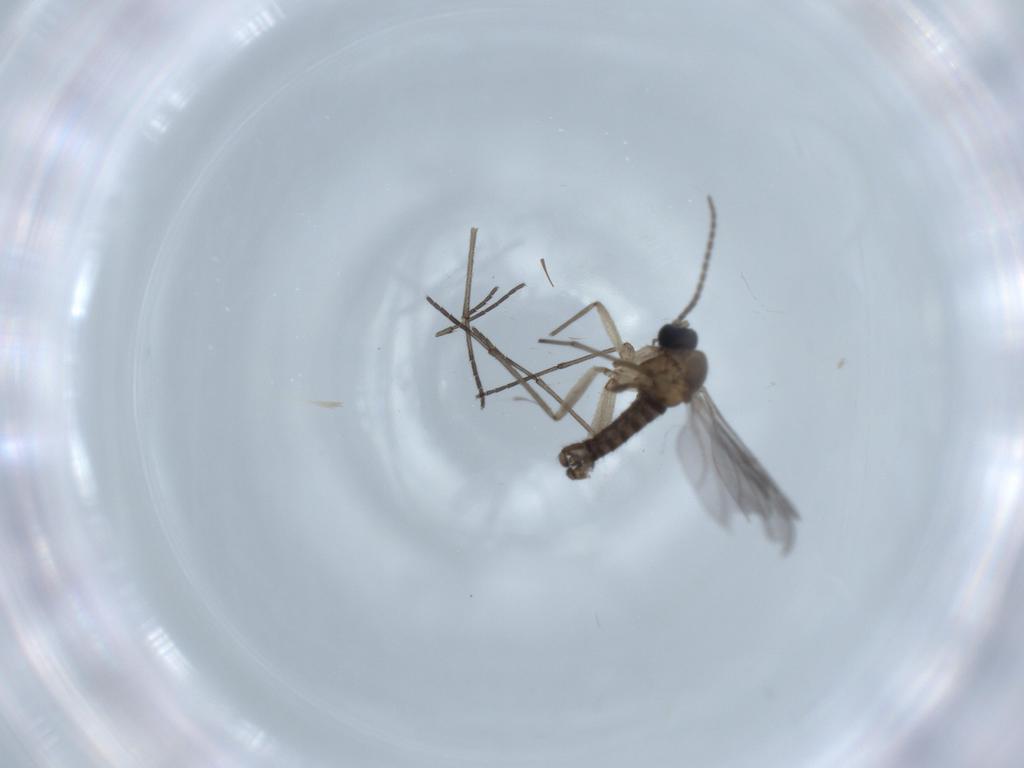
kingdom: Animalia
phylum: Arthropoda
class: Insecta
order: Diptera
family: Sciaridae
